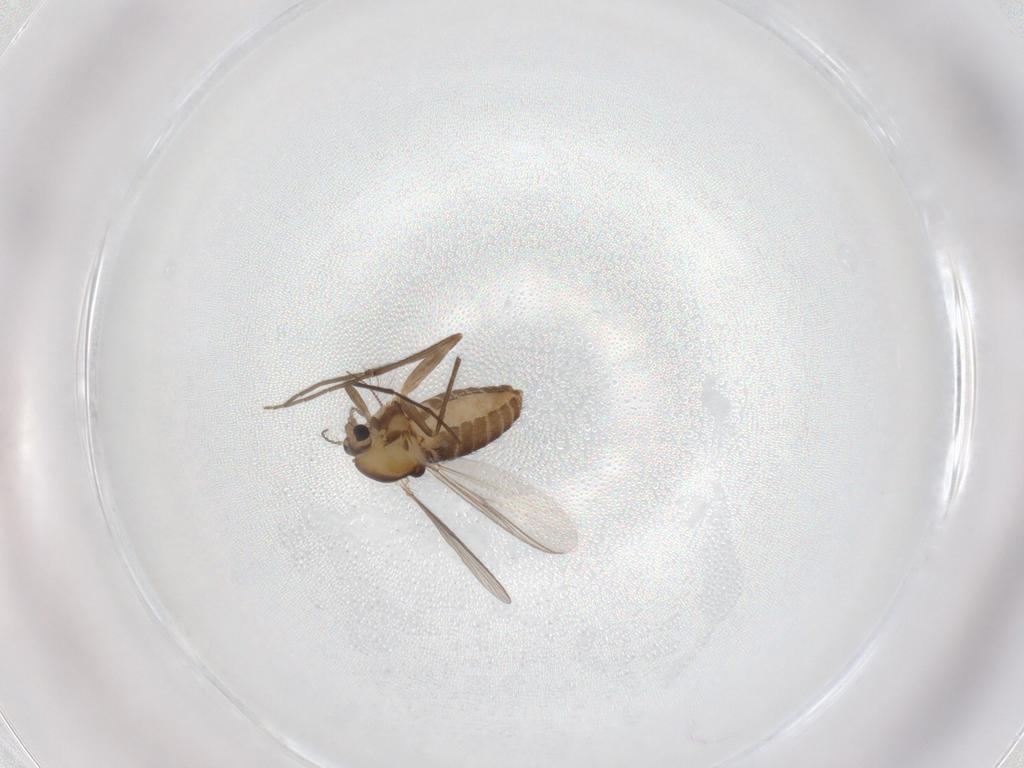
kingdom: Animalia
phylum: Arthropoda
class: Insecta
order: Diptera
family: Chironomidae
